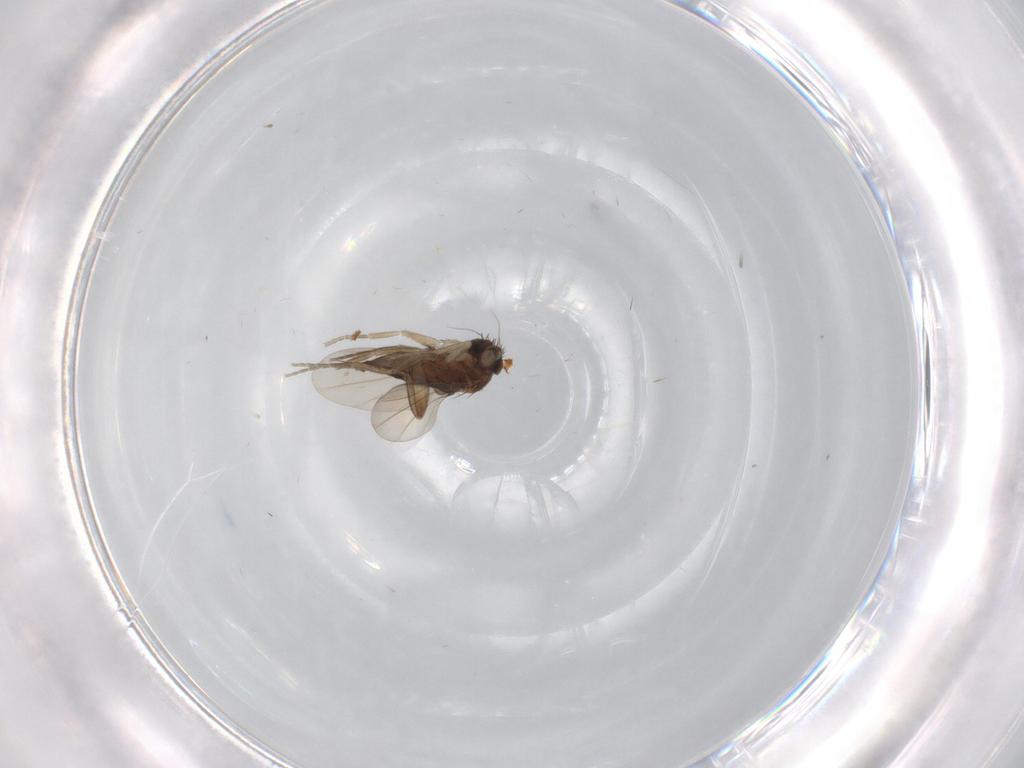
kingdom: Animalia
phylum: Arthropoda
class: Insecta
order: Diptera
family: Phoridae
